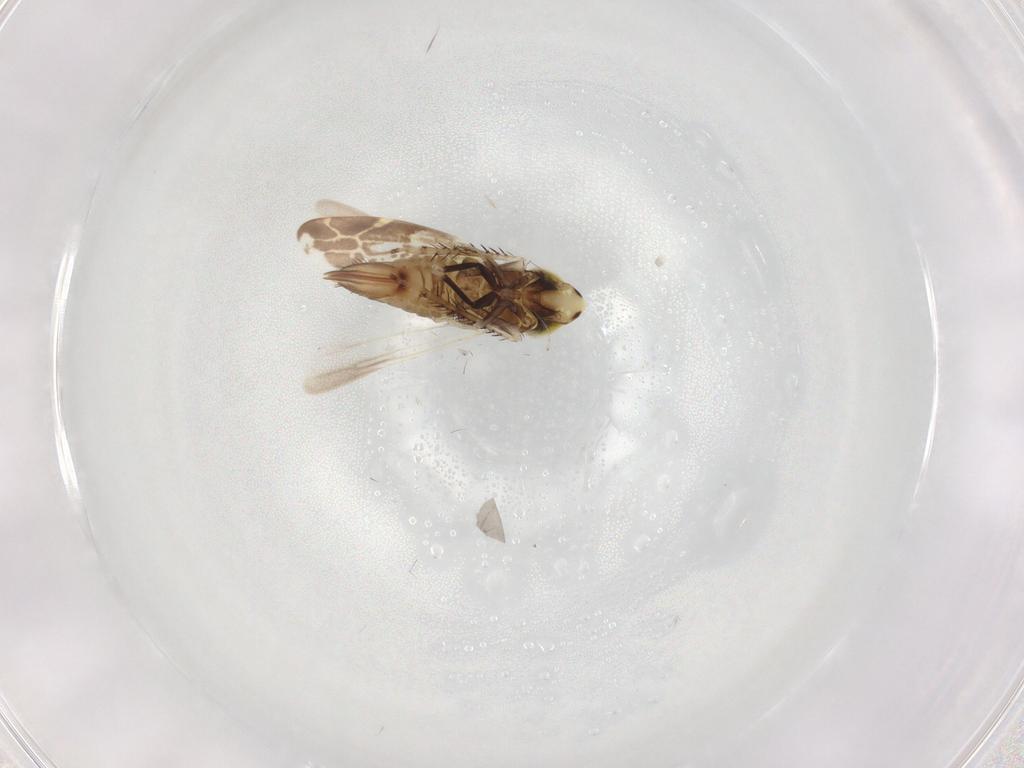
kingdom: Animalia
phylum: Arthropoda
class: Insecta
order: Hemiptera
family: Cicadellidae
